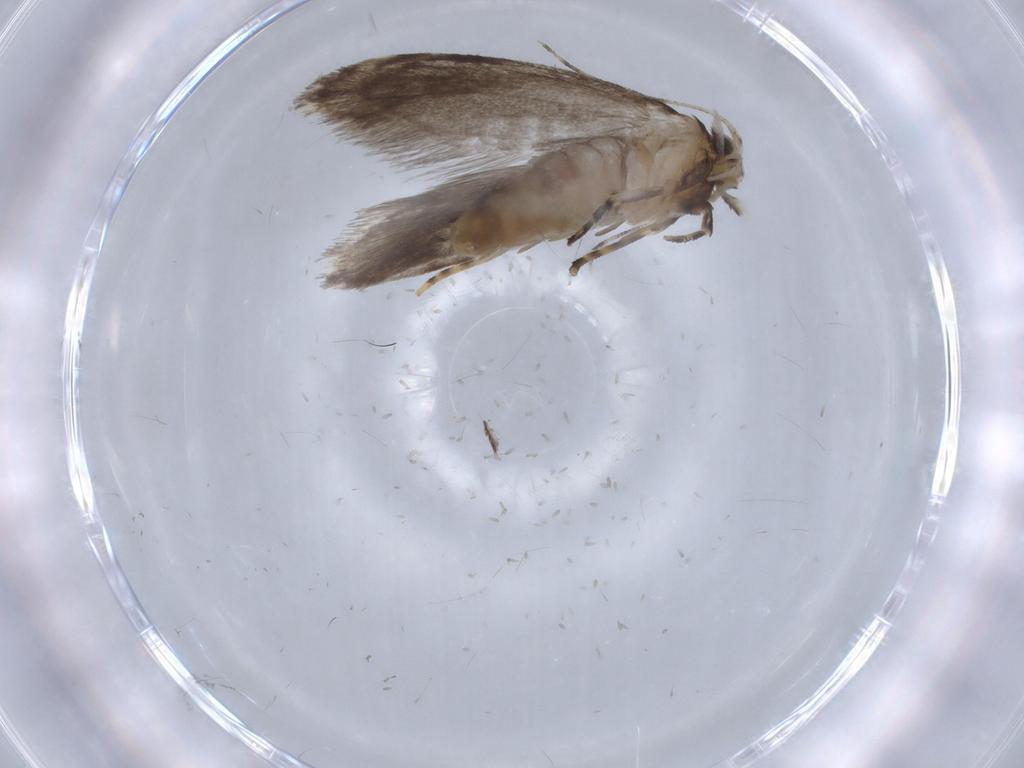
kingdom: Animalia
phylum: Arthropoda
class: Insecta
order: Lepidoptera
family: Tineidae
